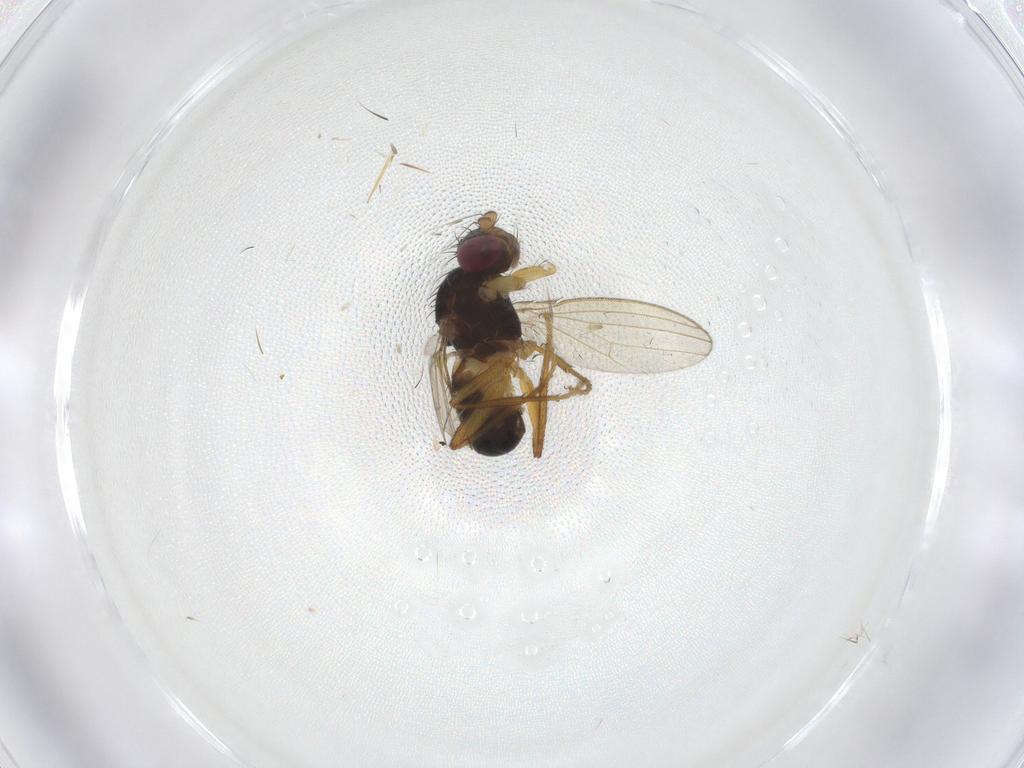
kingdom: Animalia
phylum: Arthropoda
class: Insecta
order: Diptera
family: Pseudopomyzidae
